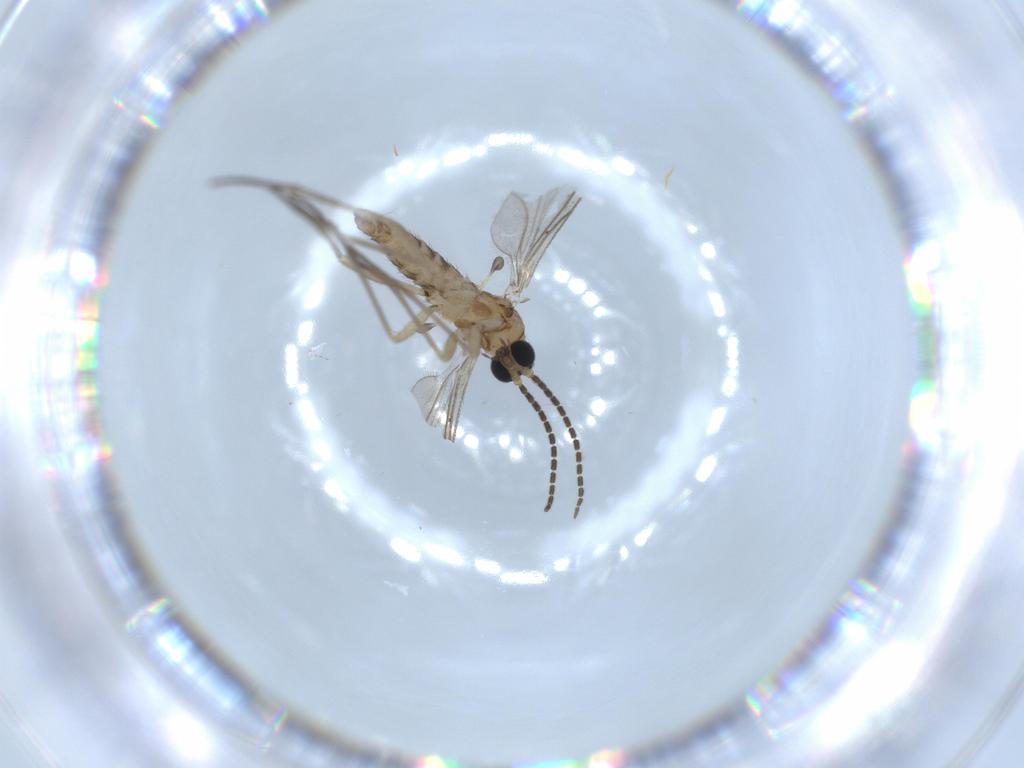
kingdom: Animalia
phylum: Arthropoda
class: Insecta
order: Diptera
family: Sciaridae
